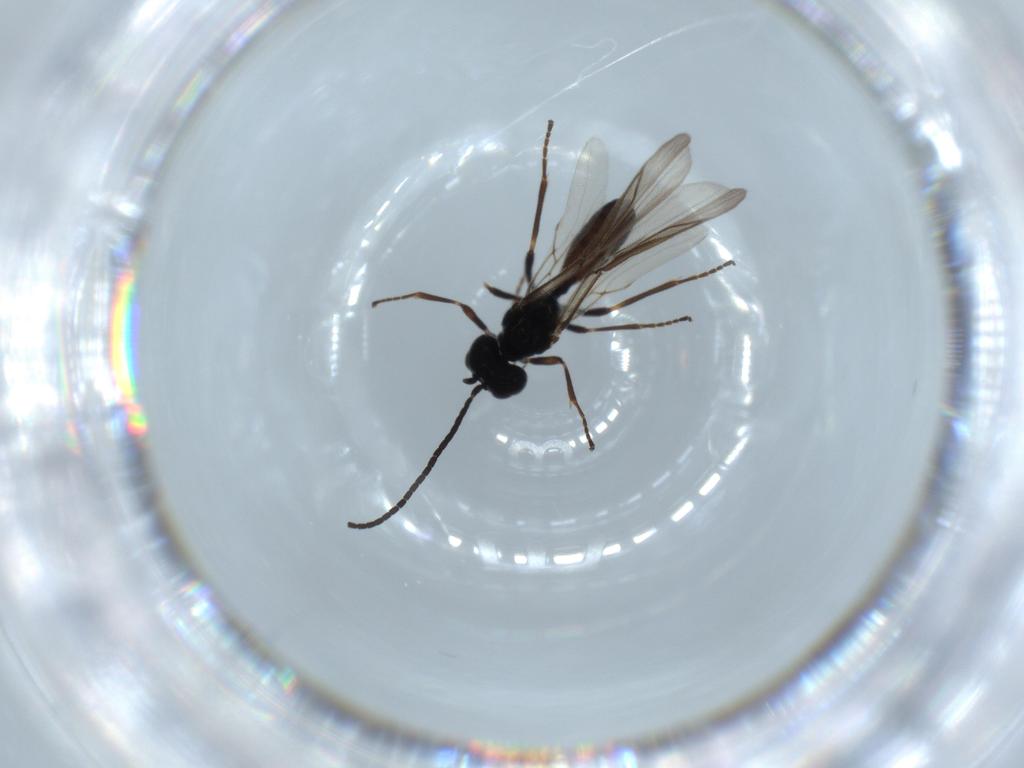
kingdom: Animalia
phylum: Arthropoda
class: Insecta
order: Hymenoptera
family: Braconidae
